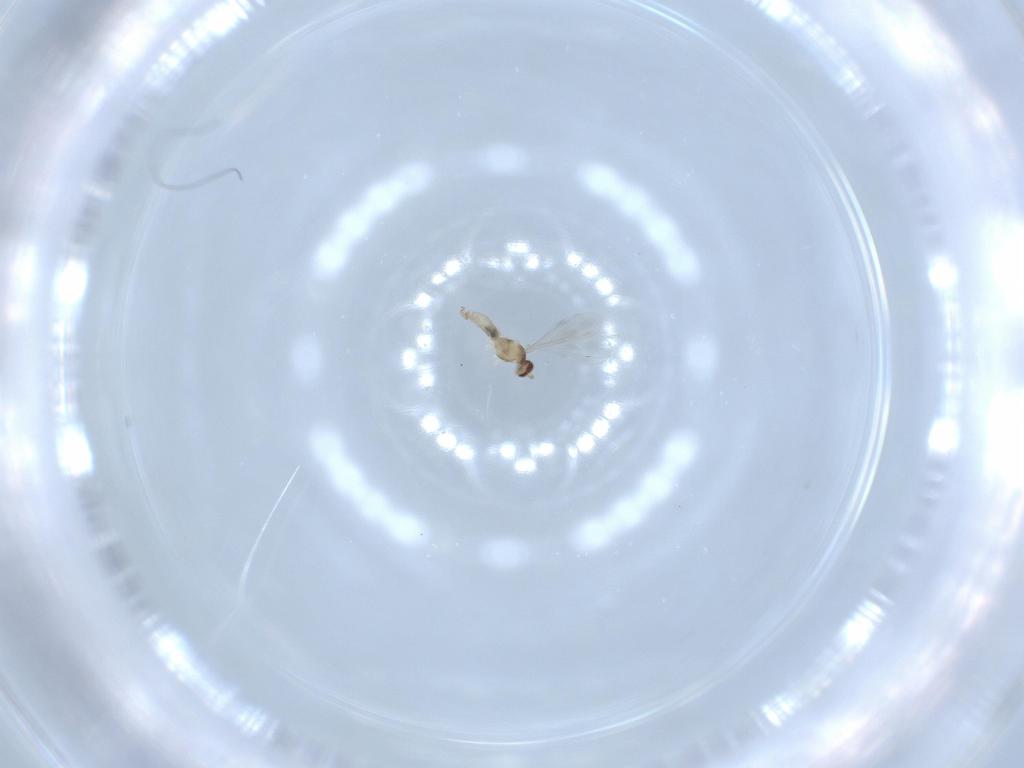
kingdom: Animalia
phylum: Arthropoda
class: Insecta
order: Diptera
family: Cecidomyiidae
